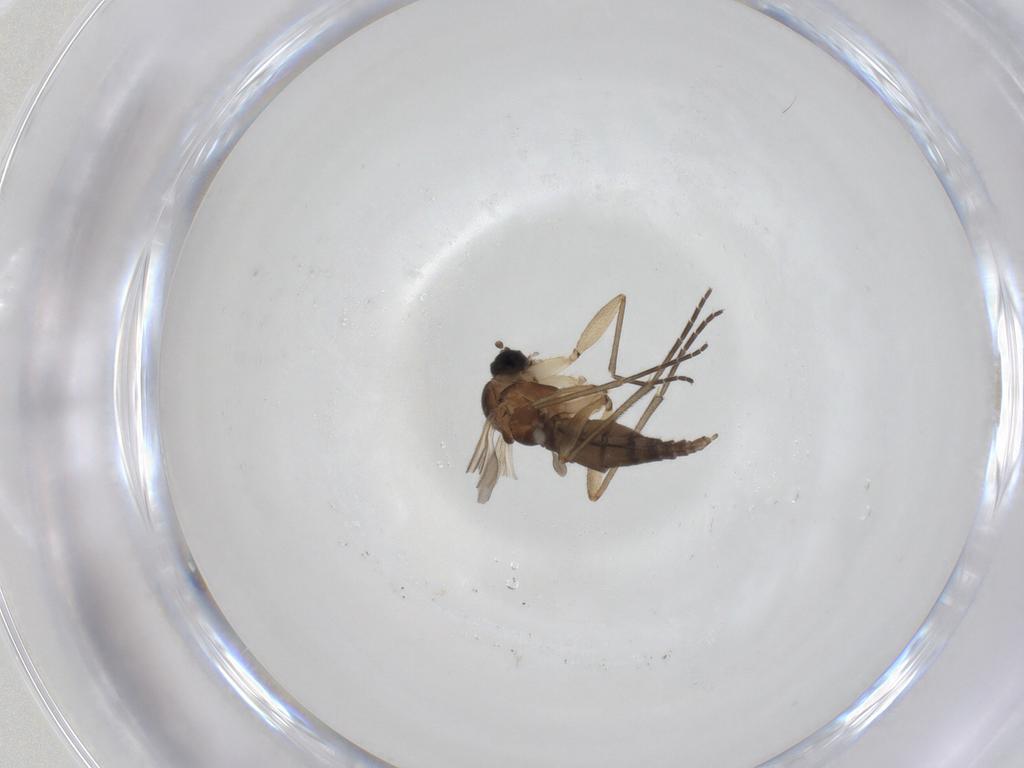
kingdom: Animalia
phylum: Arthropoda
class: Insecta
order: Diptera
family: Sciaridae
